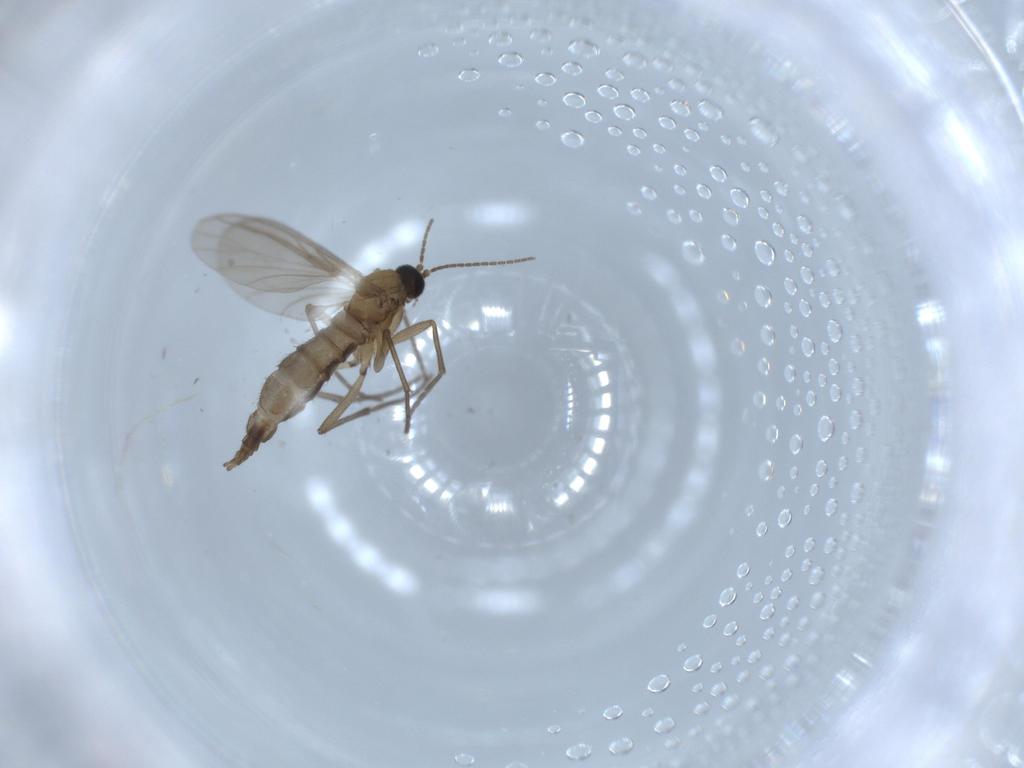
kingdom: Animalia
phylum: Arthropoda
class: Insecta
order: Diptera
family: Sciaridae
